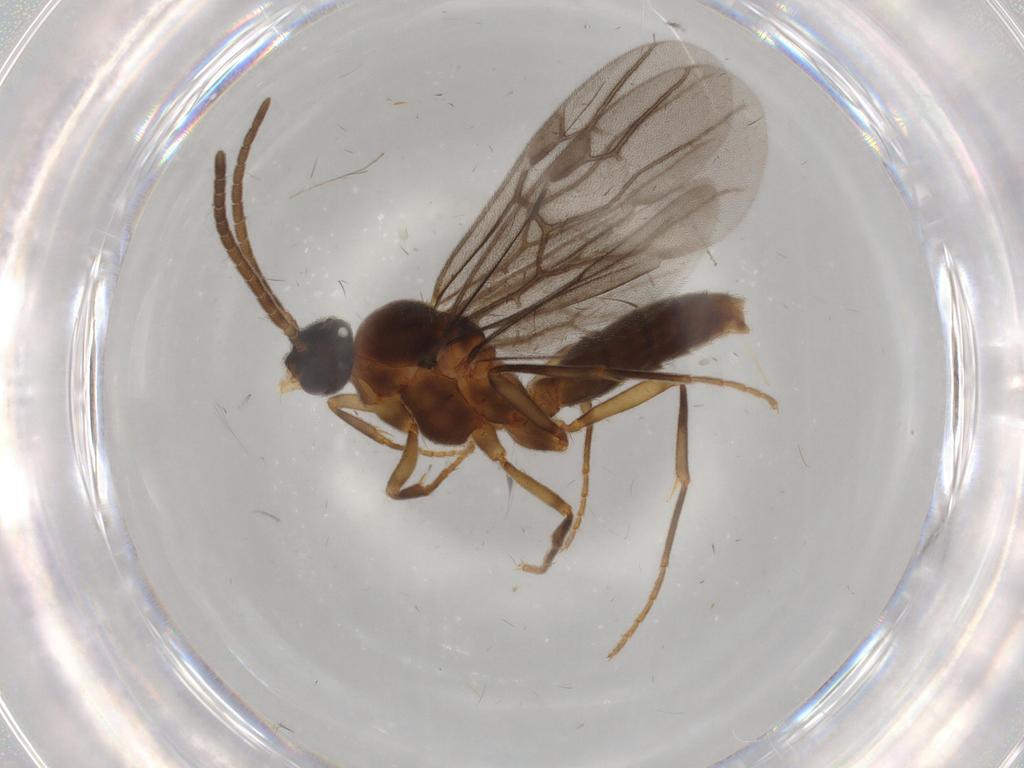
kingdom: Animalia
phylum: Arthropoda
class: Insecta
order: Hymenoptera
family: Formicidae
